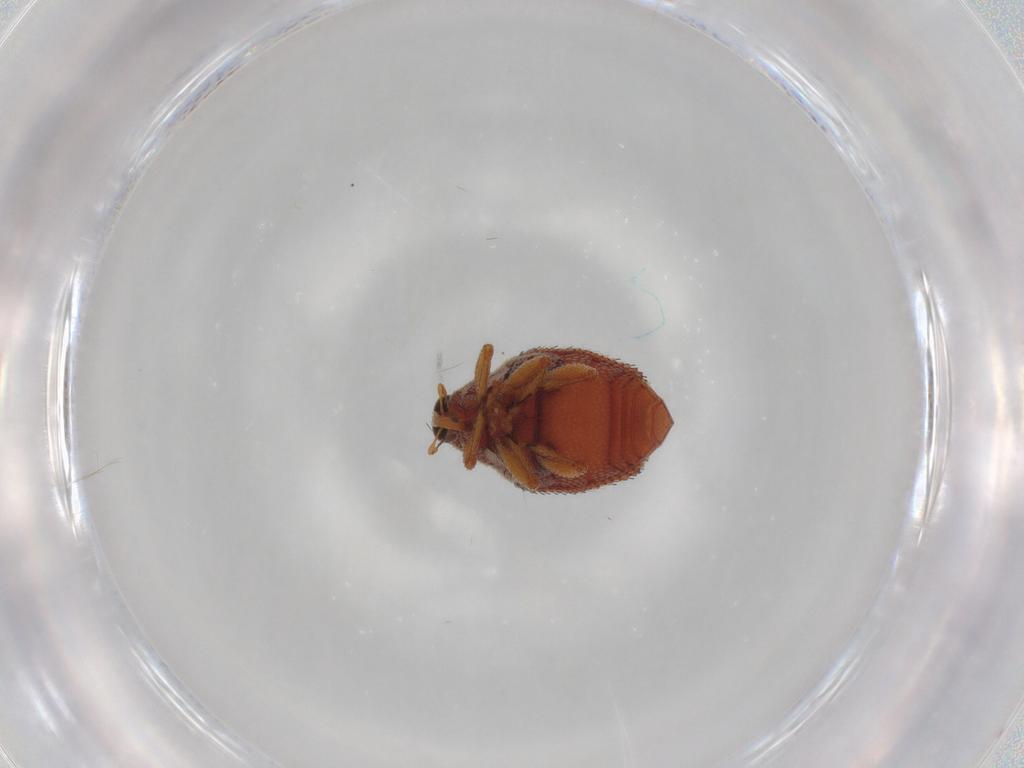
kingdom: Animalia
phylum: Arthropoda
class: Insecta
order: Coleoptera
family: Curculionidae
